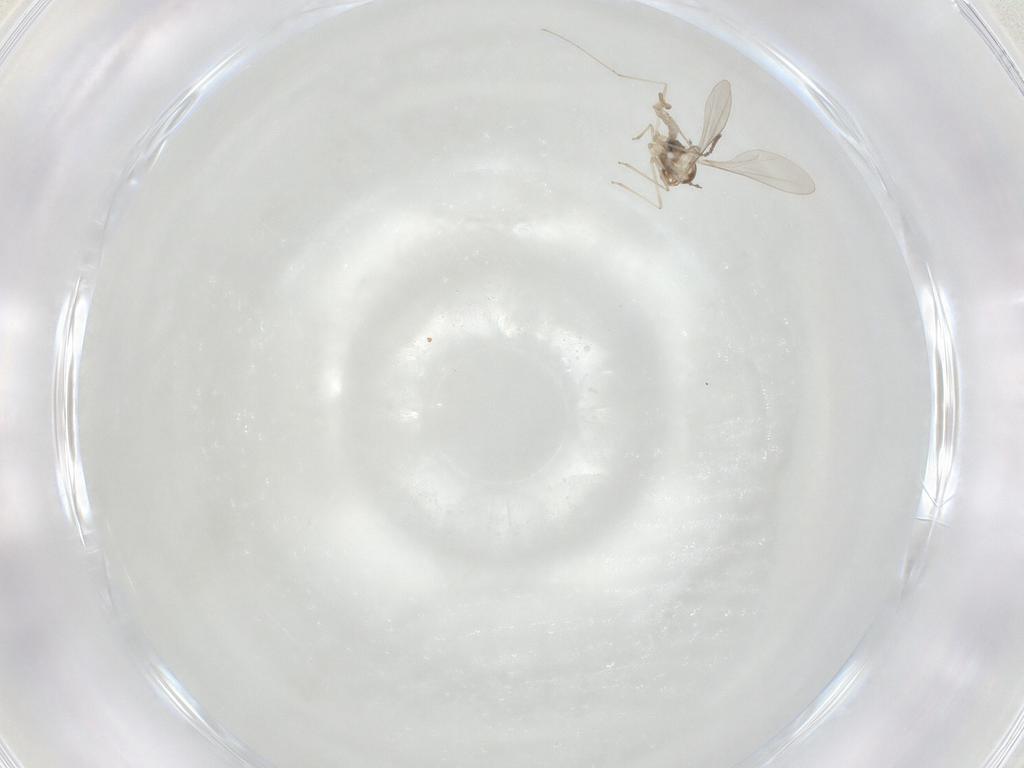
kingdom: Animalia
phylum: Arthropoda
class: Insecta
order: Diptera
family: Cecidomyiidae
